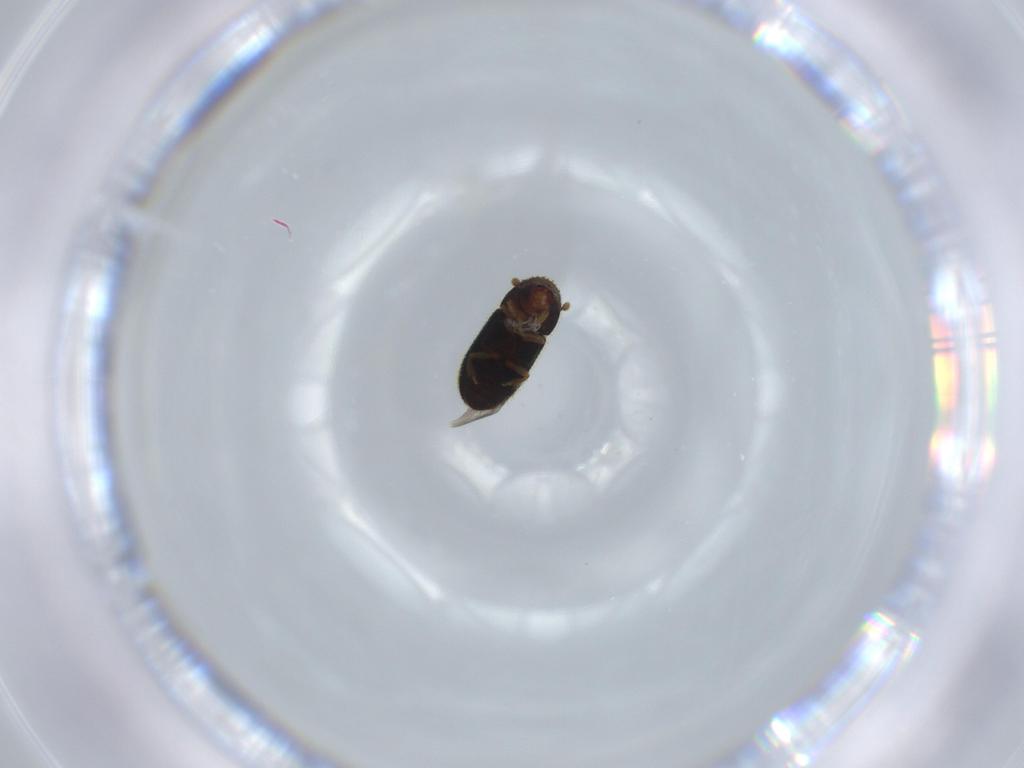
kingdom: Animalia
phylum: Arthropoda
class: Insecta
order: Coleoptera
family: Lycidae
